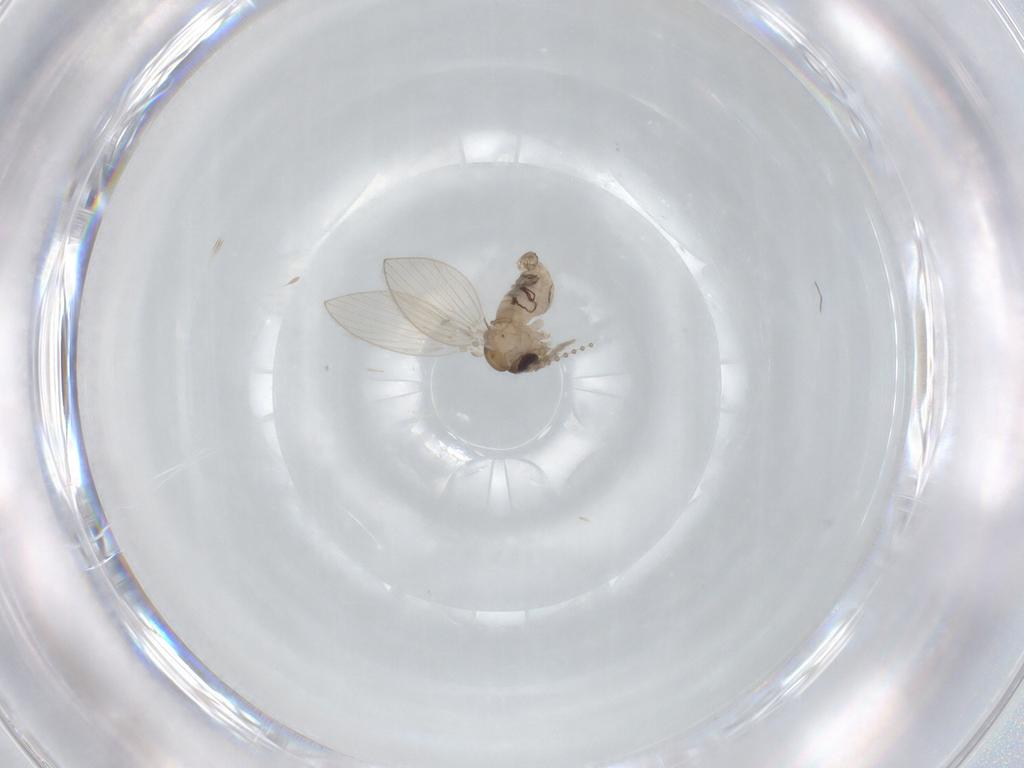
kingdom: Animalia
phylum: Arthropoda
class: Insecta
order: Diptera
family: Psychodidae
